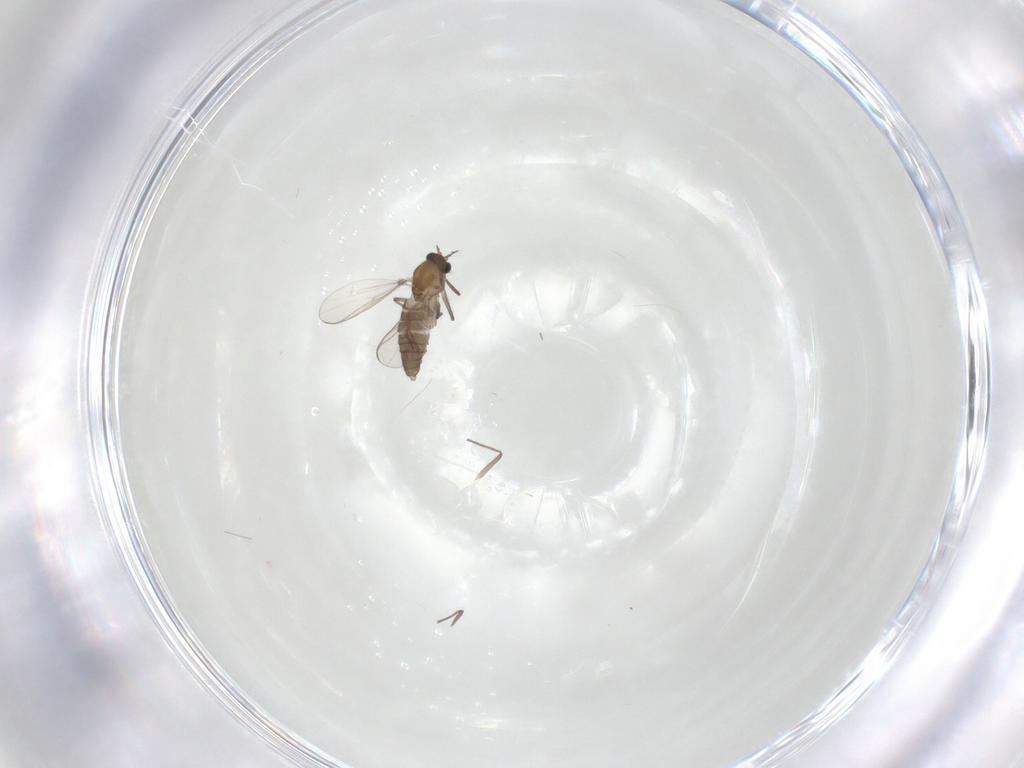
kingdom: Animalia
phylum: Arthropoda
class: Insecta
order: Diptera
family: Chironomidae
